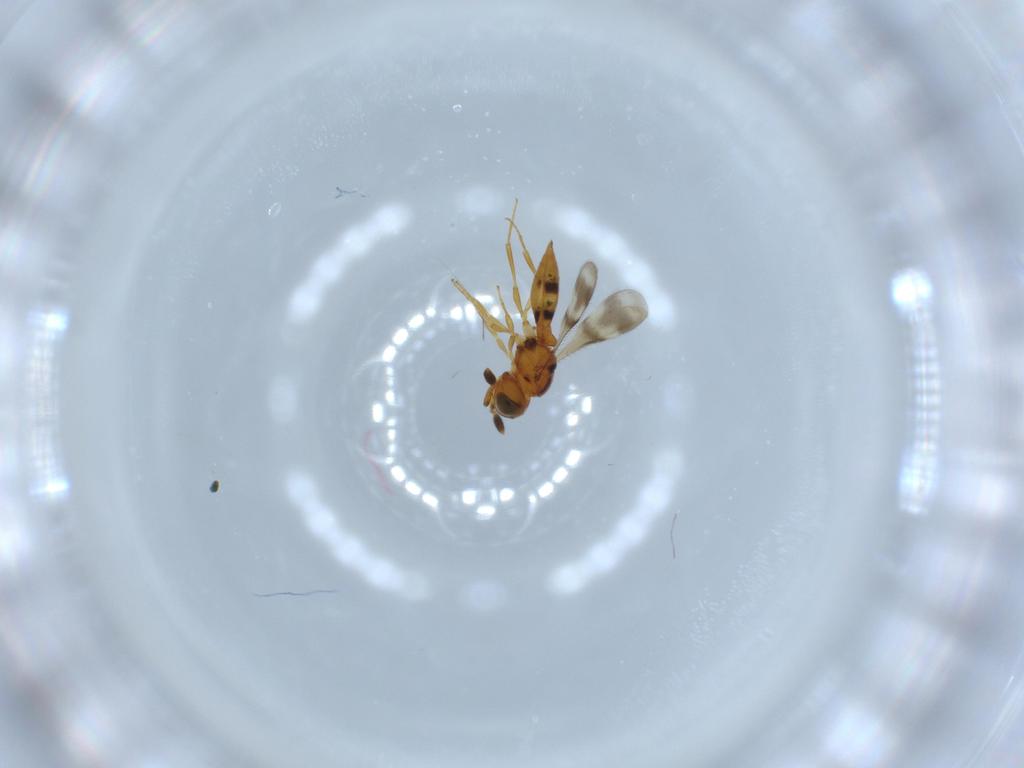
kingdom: Animalia
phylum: Arthropoda
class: Insecta
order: Hymenoptera
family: Scelionidae
